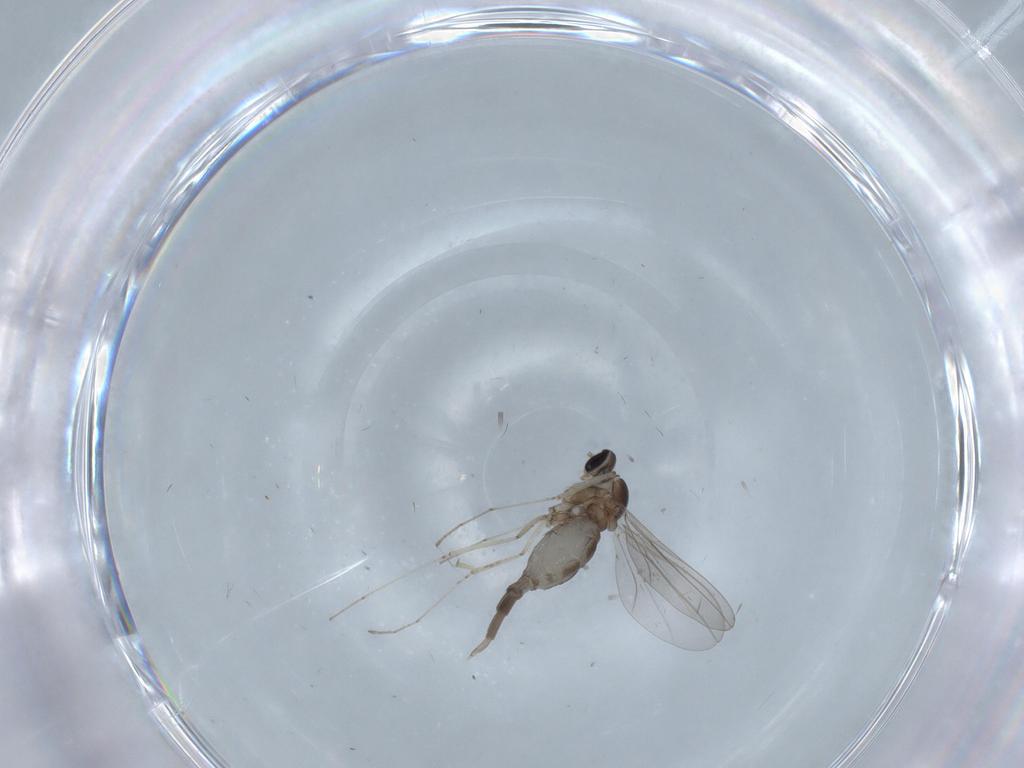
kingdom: Animalia
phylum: Arthropoda
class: Insecta
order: Diptera
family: Cecidomyiidae
